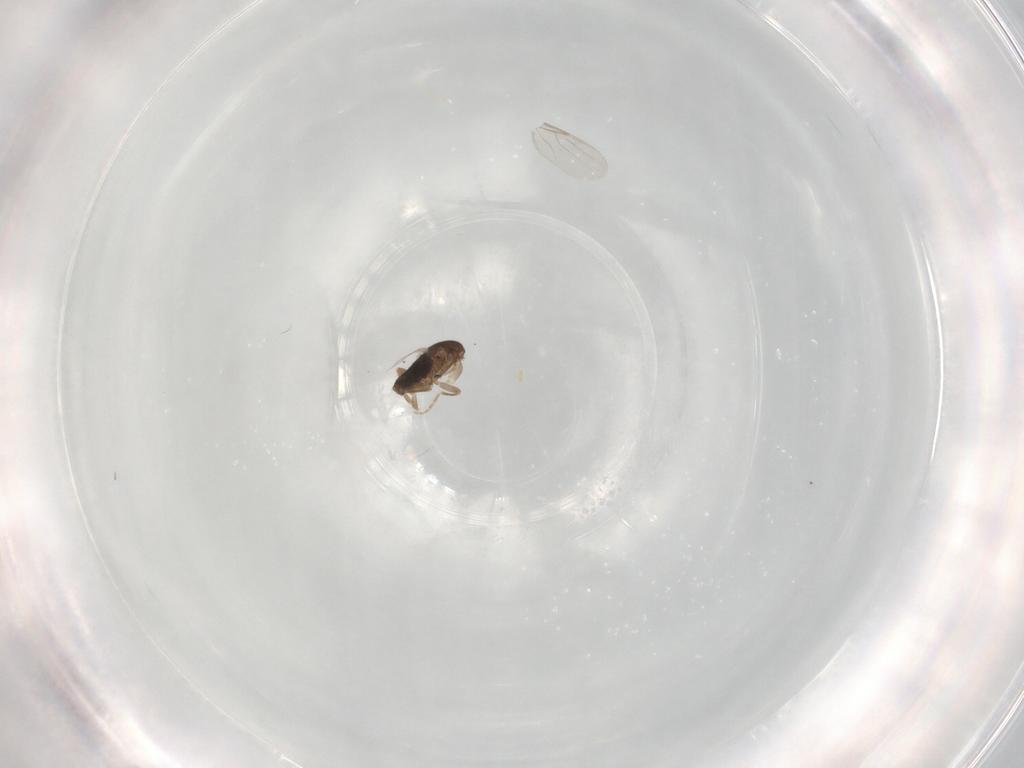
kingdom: Animalia
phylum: Arthropoda
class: Insecta
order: Diptera
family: Phoridae
